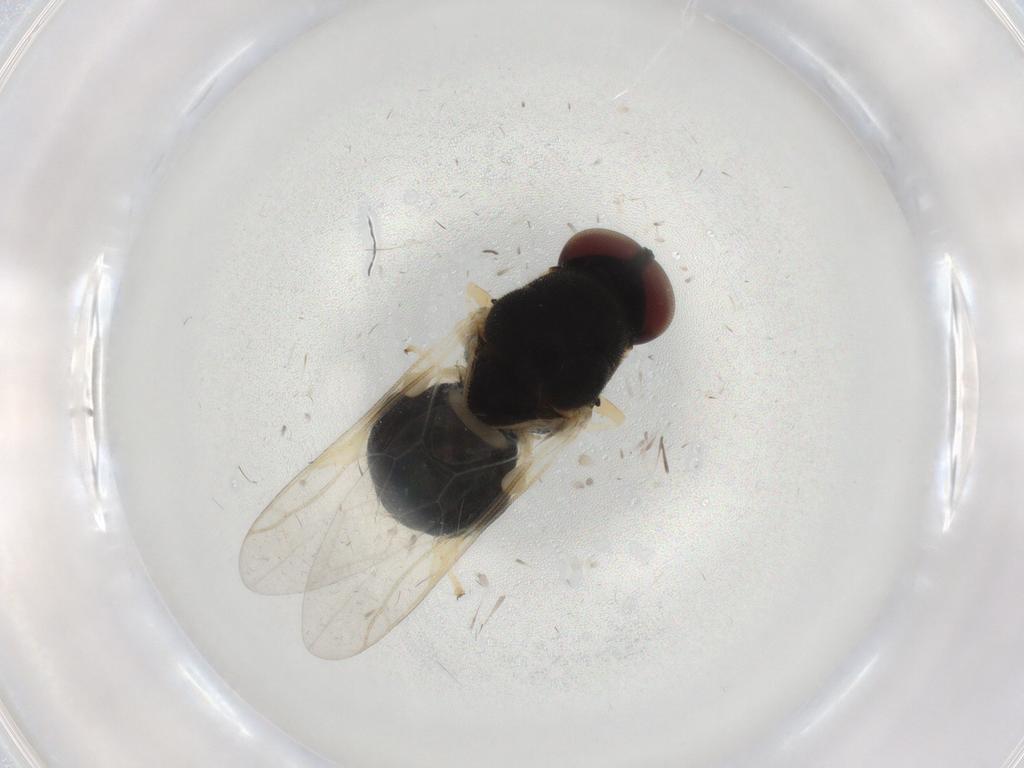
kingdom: Animalia
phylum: Arthropoda
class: Insecta
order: Diptera
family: Stratiomyidae
